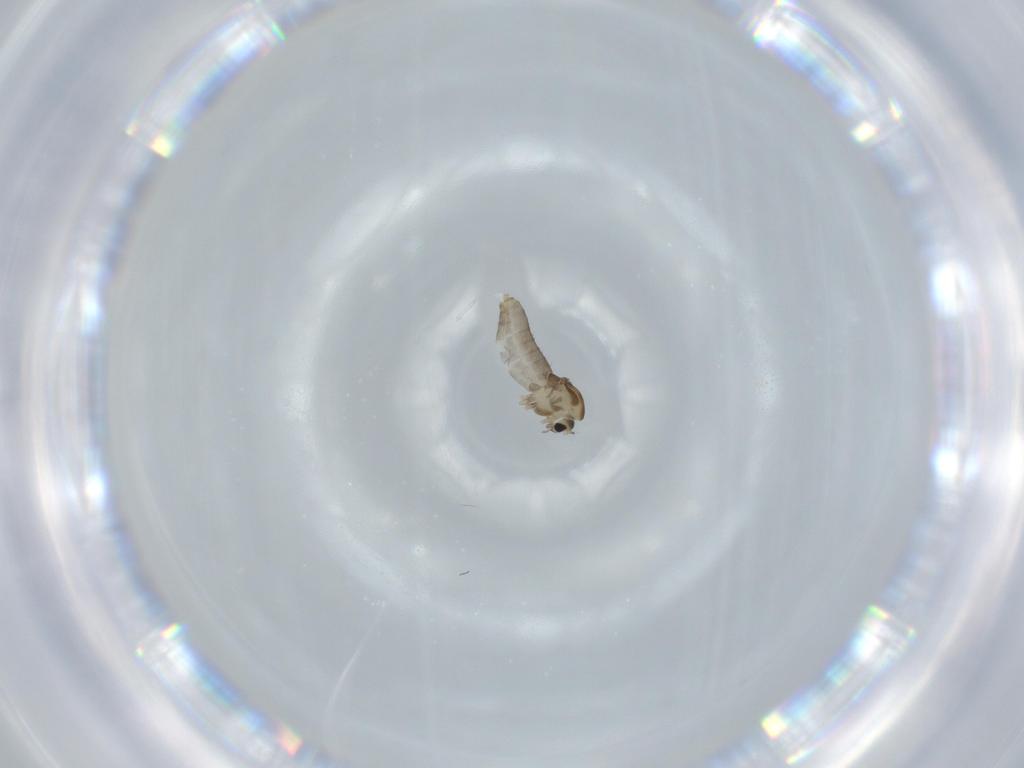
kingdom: Animalia
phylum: Arthropoda
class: Insecta
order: Diptera
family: Chironomidae
